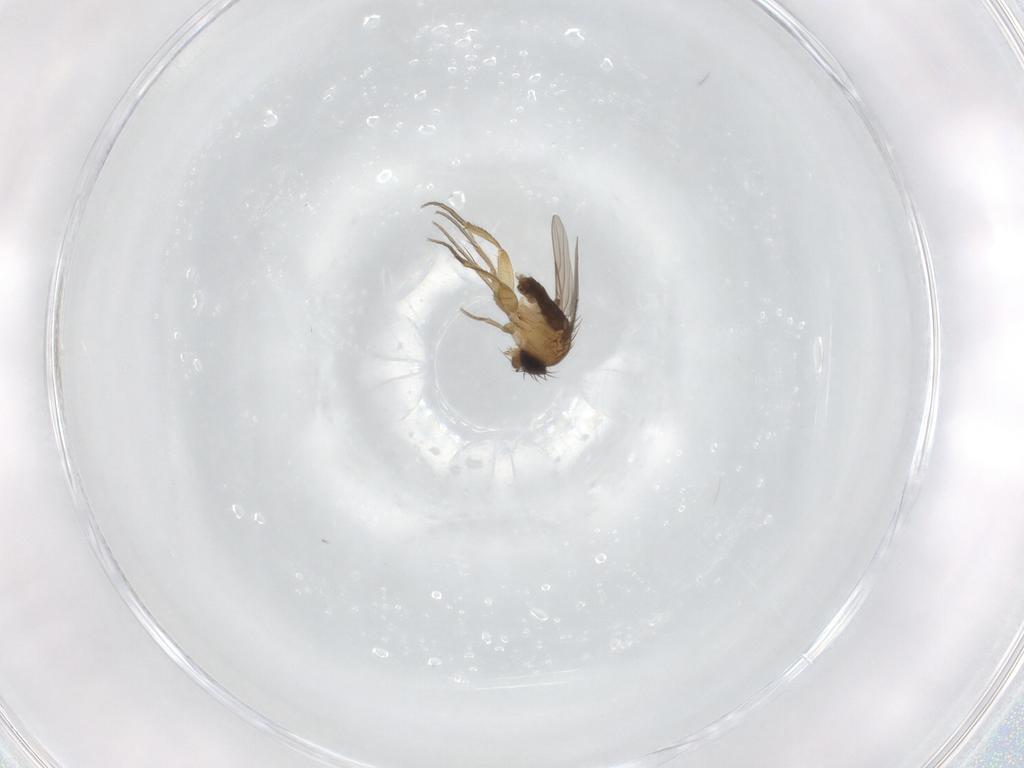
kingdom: Animalia
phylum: Arthropoda
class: Insecta
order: Diptera
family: Phoridae
